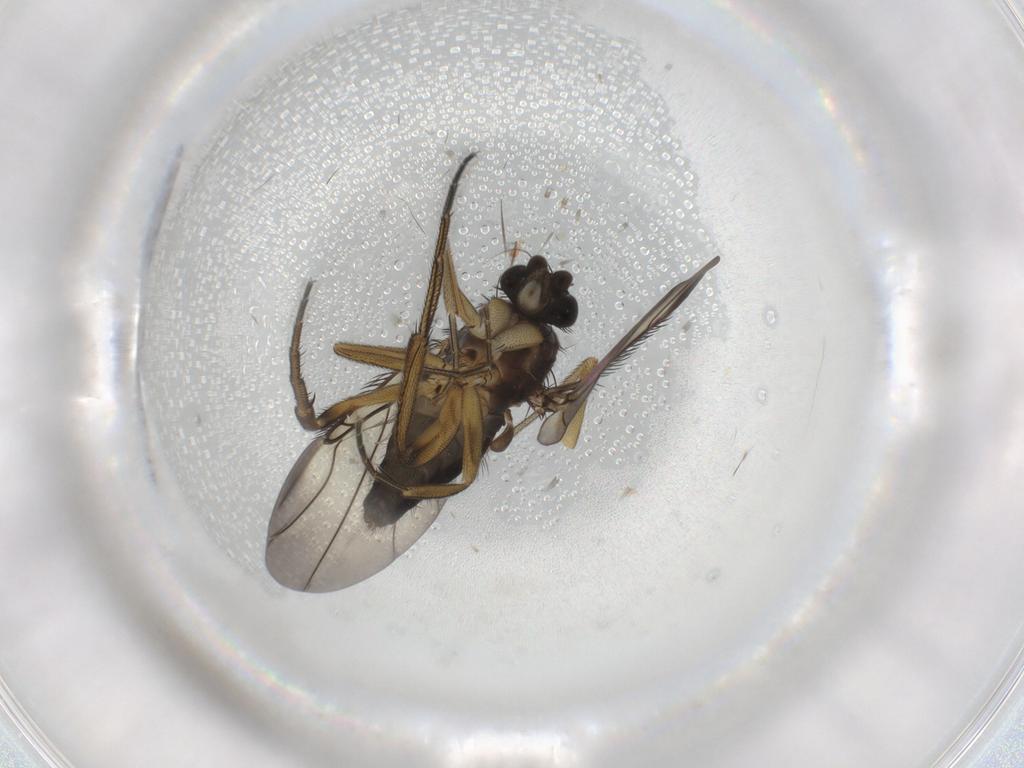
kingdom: Animalia
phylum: Arthropoda
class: Insecta
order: Diptera
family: Phoridae
